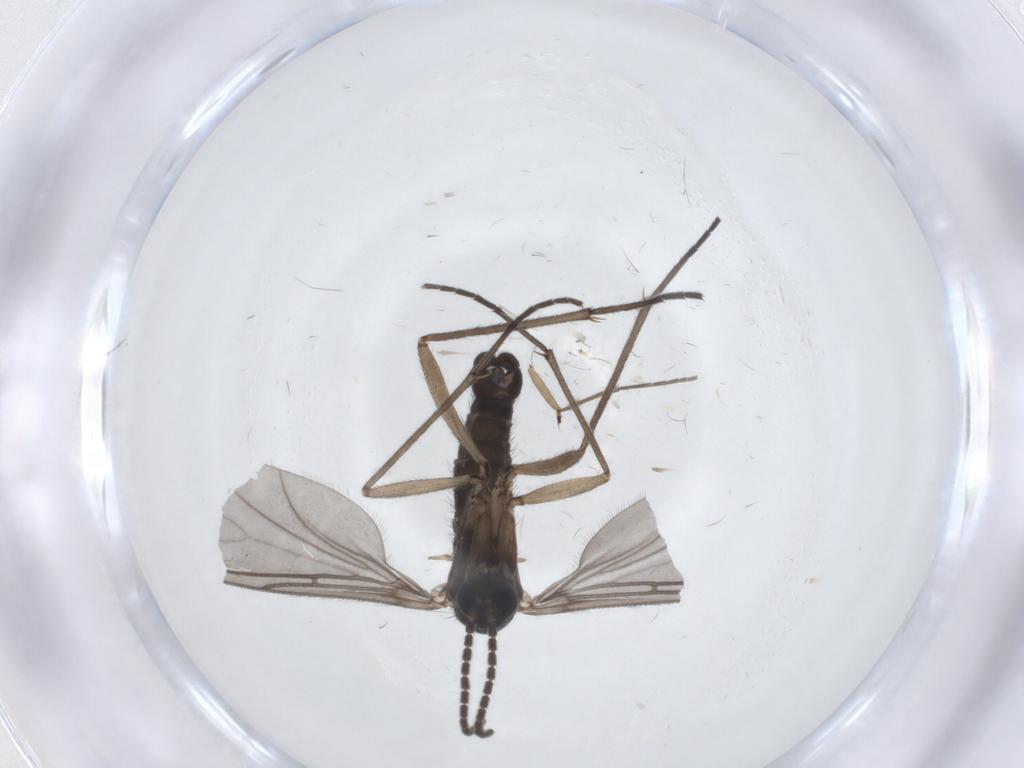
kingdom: Animalia
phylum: Arthropoda
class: Insecta
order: Diptera
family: Sciaridae
